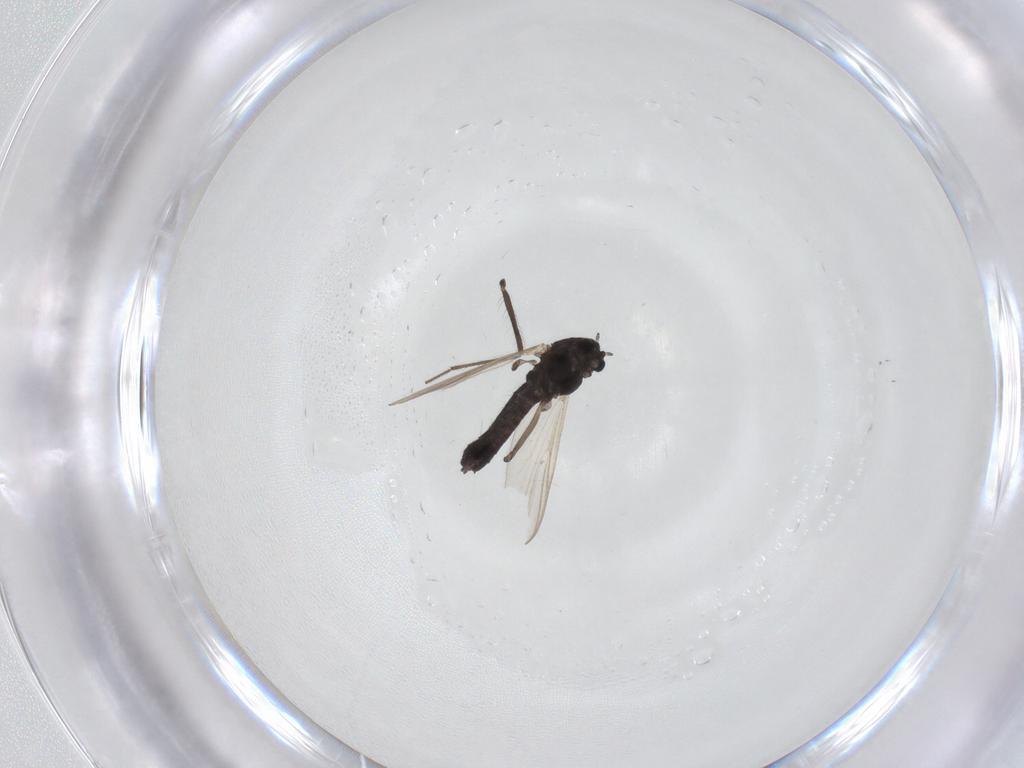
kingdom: Animalia
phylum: Arthropoda
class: Insecta
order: Diptera
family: Chironomidae
